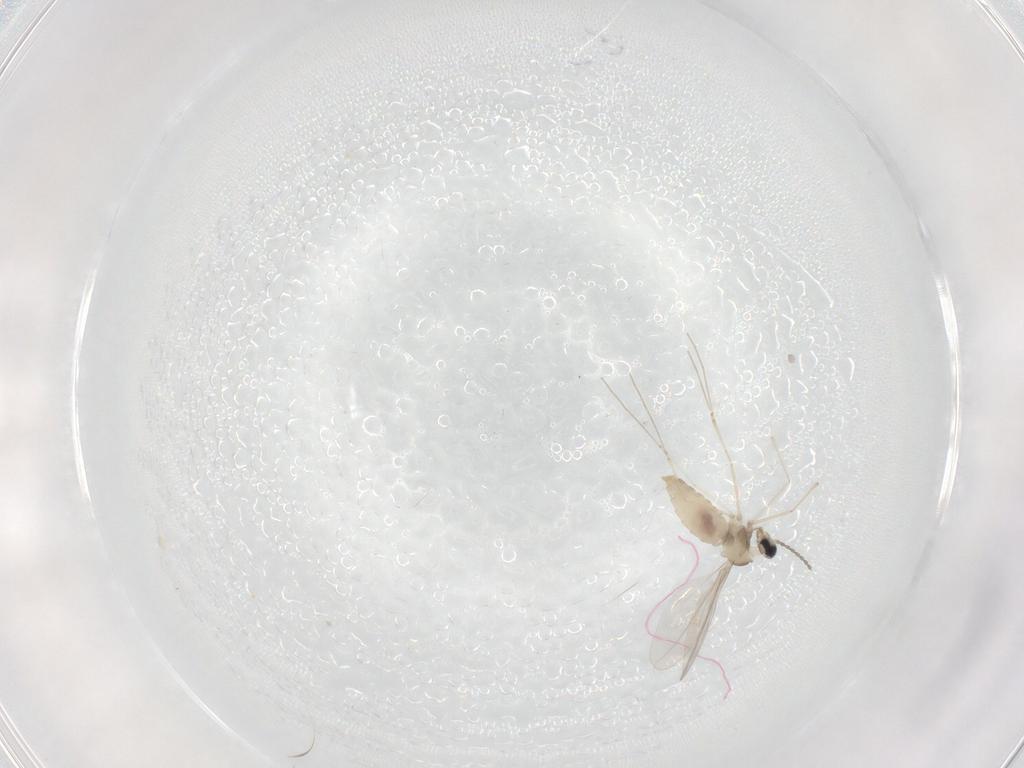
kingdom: Animalia
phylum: Arthropoda
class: Insecta
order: Diptera
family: Cecidomyiidae
